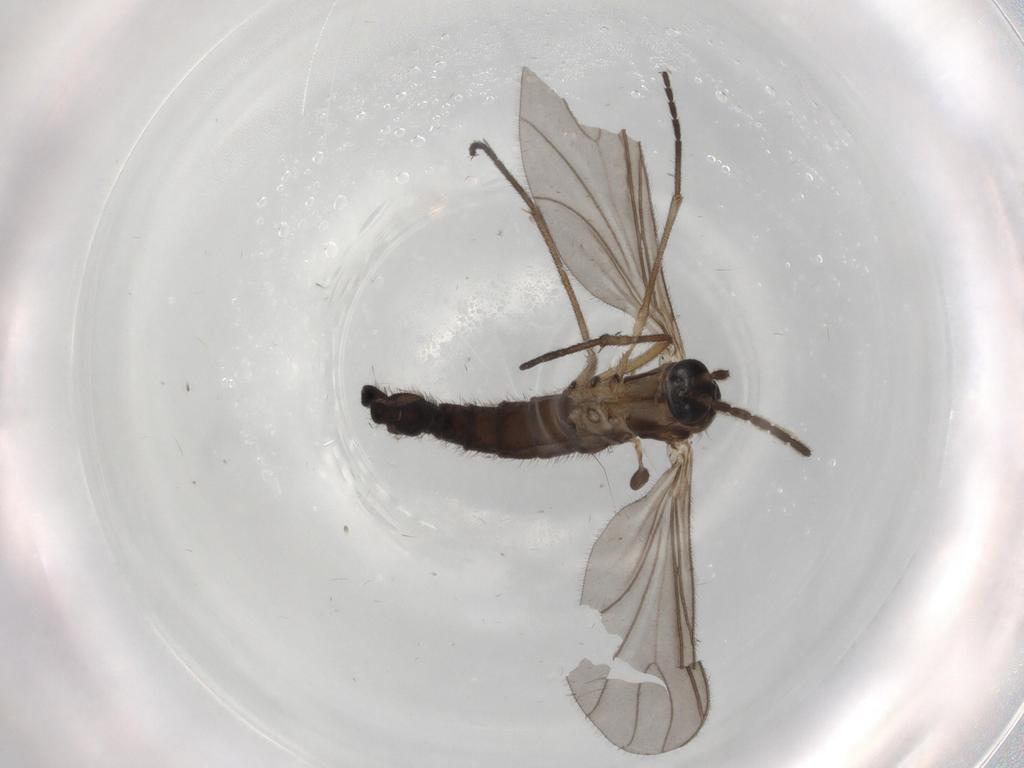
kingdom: Animalia
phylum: Arthropoda
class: Insecta
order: Diptera
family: Sciaridae
